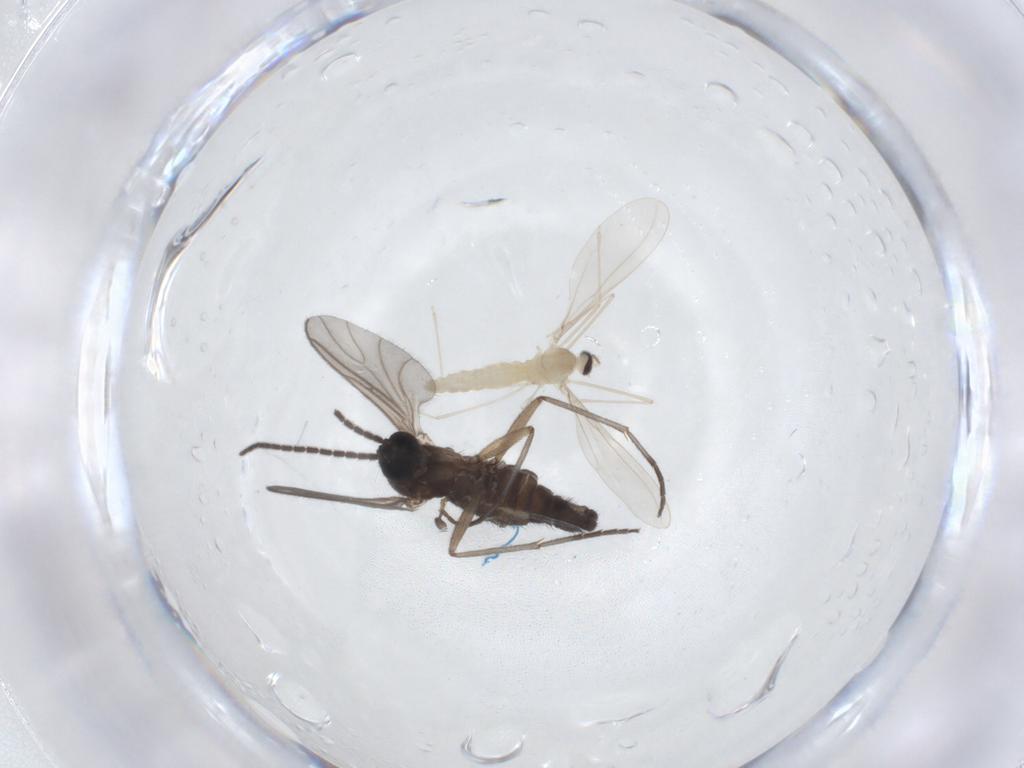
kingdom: Animalia
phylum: Arthropoda
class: Insecta
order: Diptera
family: Cecidomyiidae
